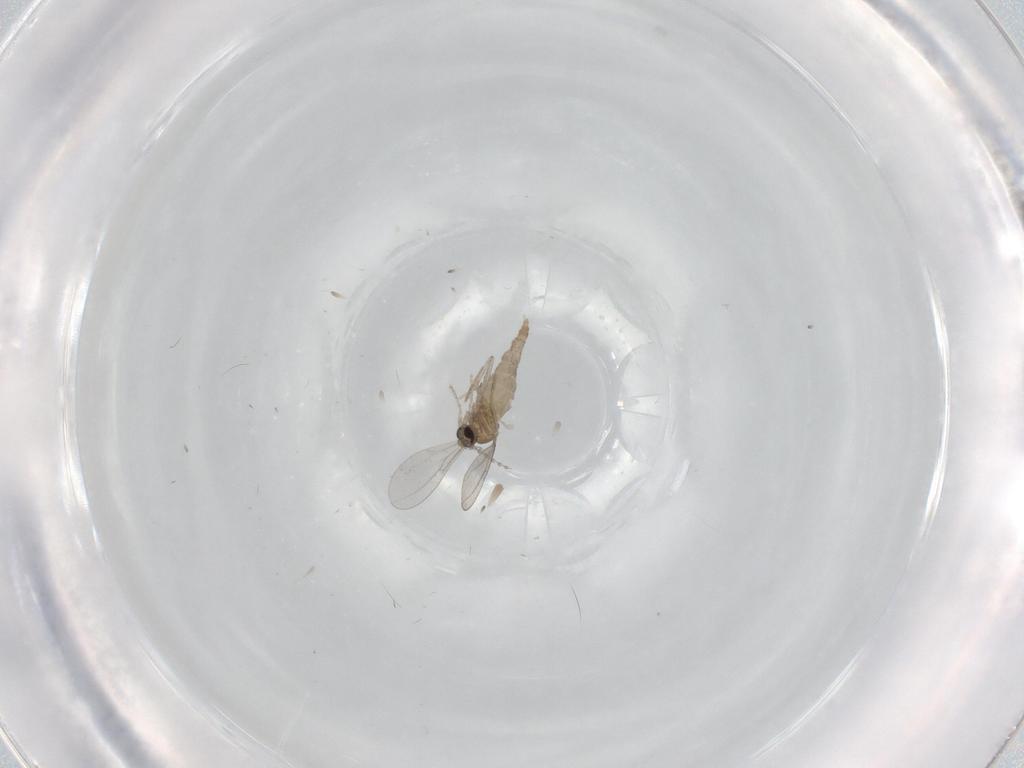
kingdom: Animalia
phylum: Arthropoda
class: Insecta
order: Diptera
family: Cecidomyiidae
